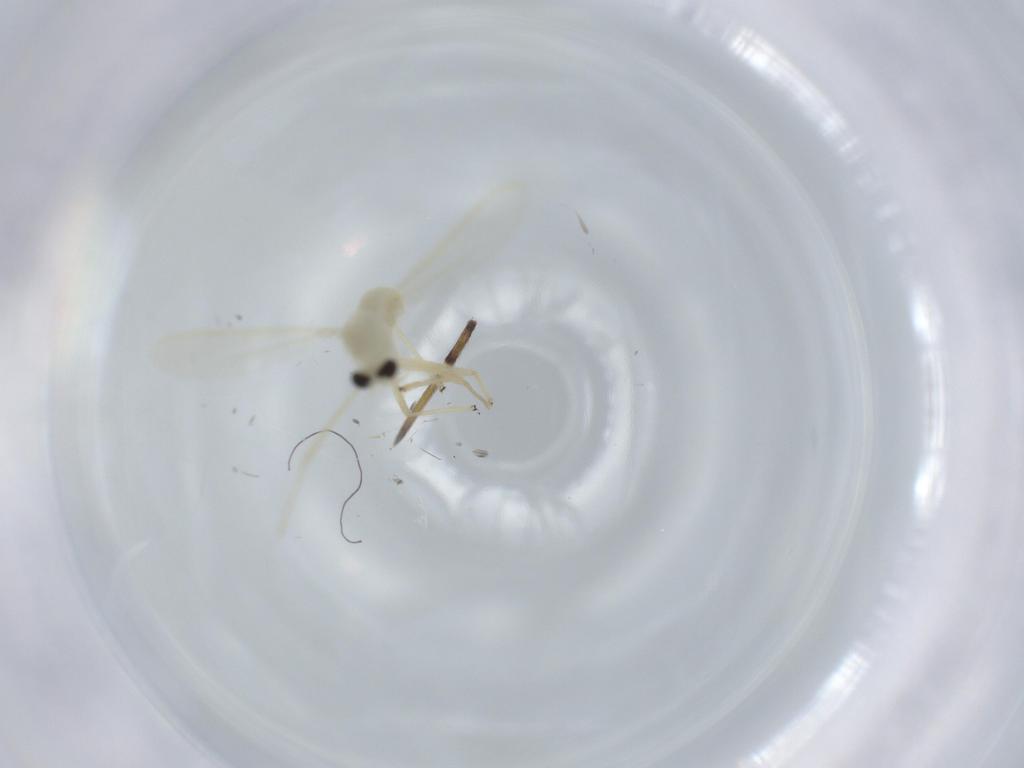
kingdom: Animalia
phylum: Arthropoda
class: Insecta
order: Diptera
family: Chironomidae
